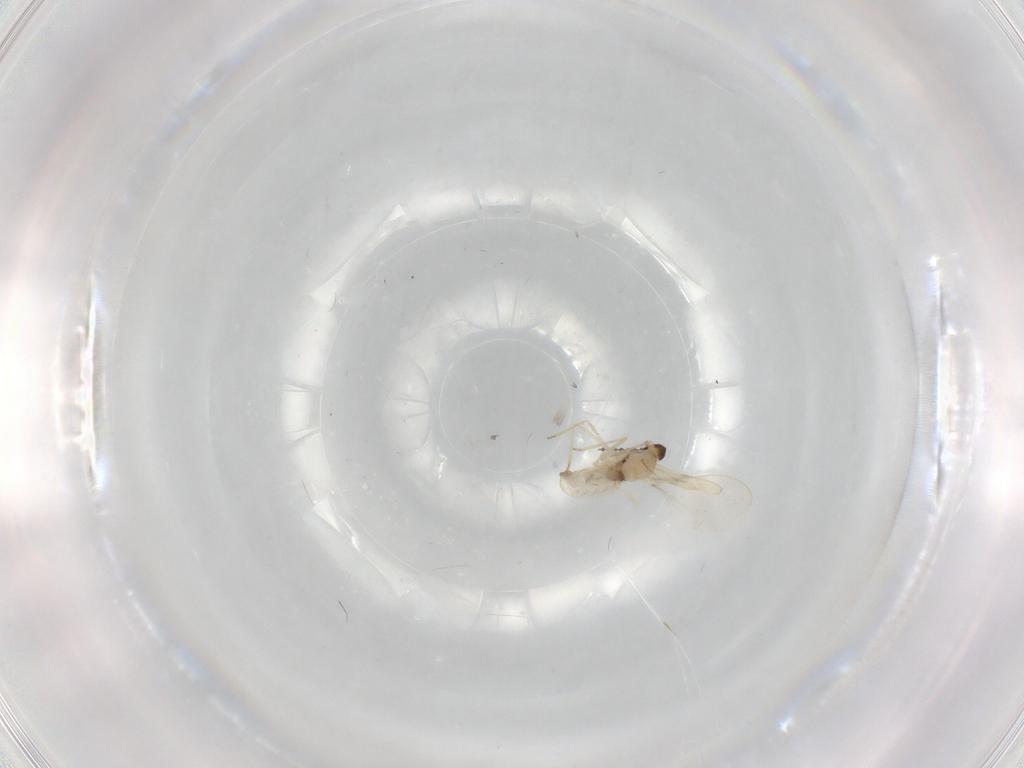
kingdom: Animalia
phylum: Arthropoda
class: Insecta
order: Diptera
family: Cecidomyiidae
